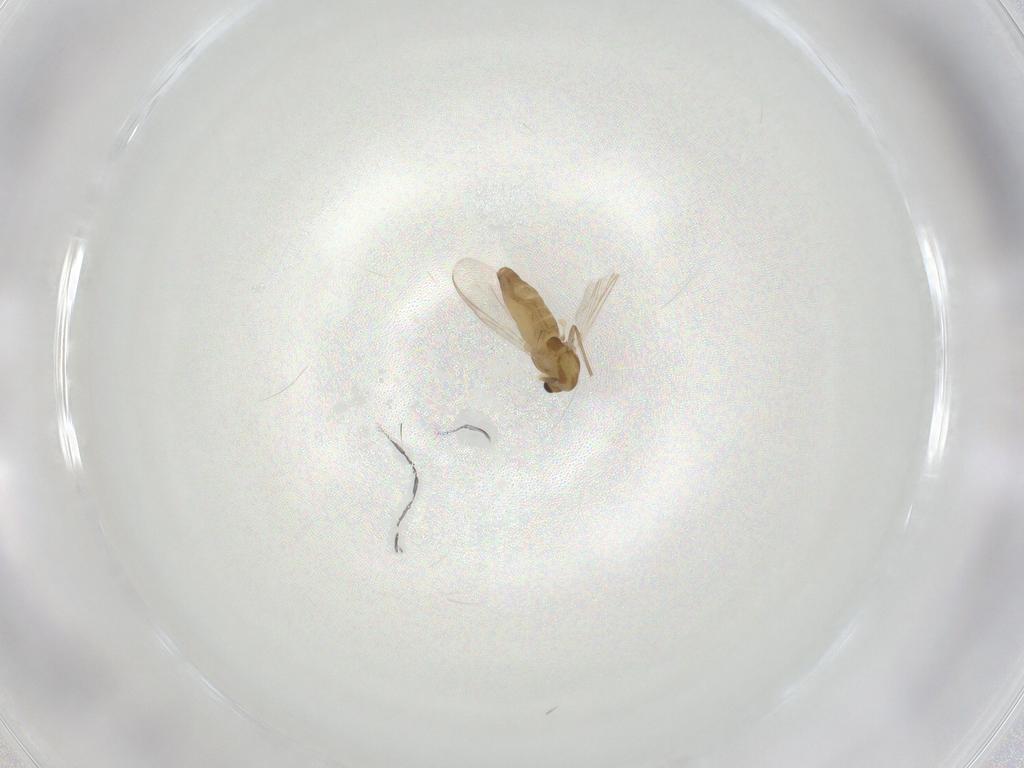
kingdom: Animalia
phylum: Arthropoda
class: Insecta
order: Diptera
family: Chironomidae
